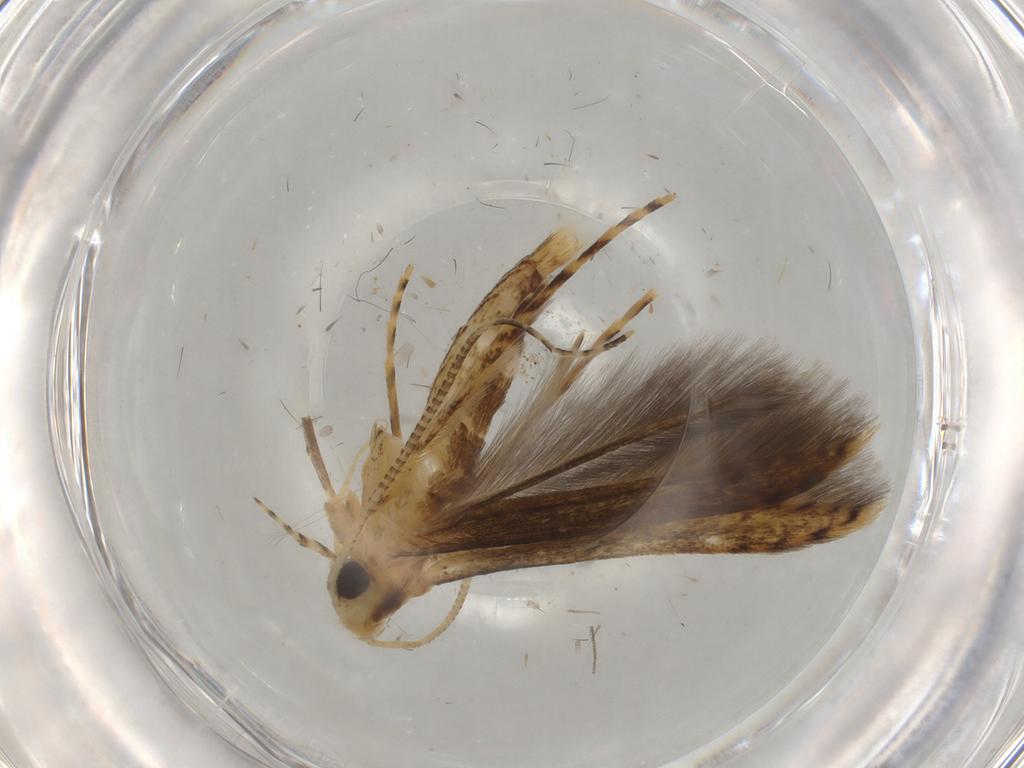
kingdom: Animalia
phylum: Arthropoda
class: Insecta
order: Lepidoptera
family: Batrachedridae
